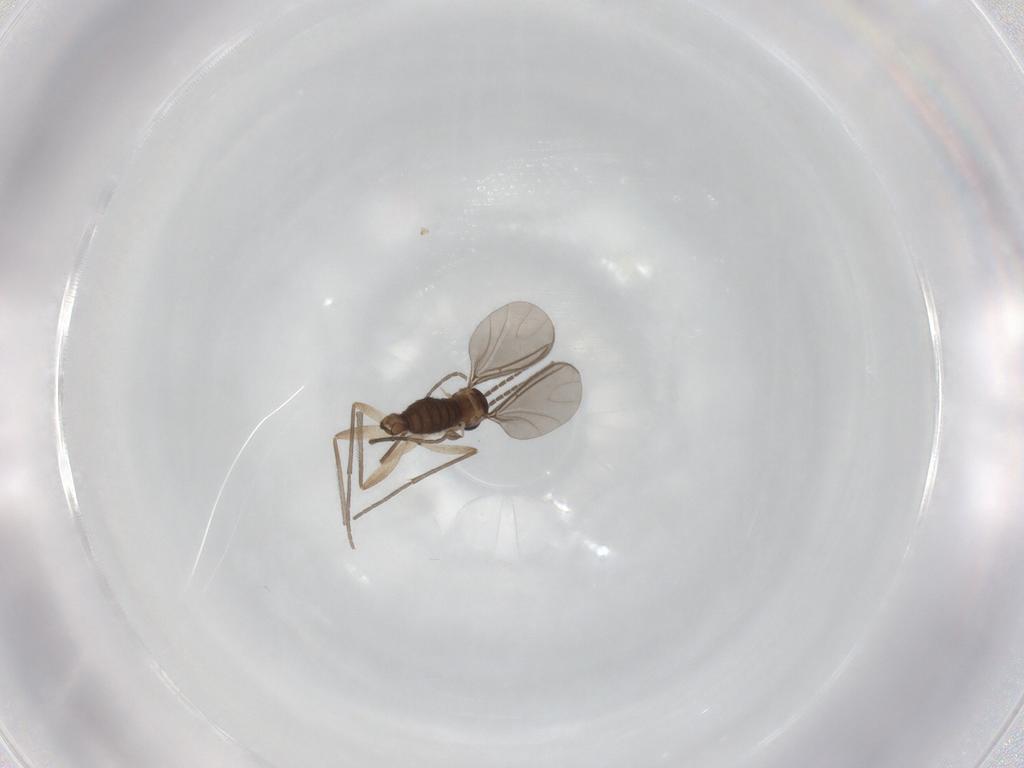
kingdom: Animalia
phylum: Arthropoda
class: Insecta
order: Diptera
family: Sciaridae
